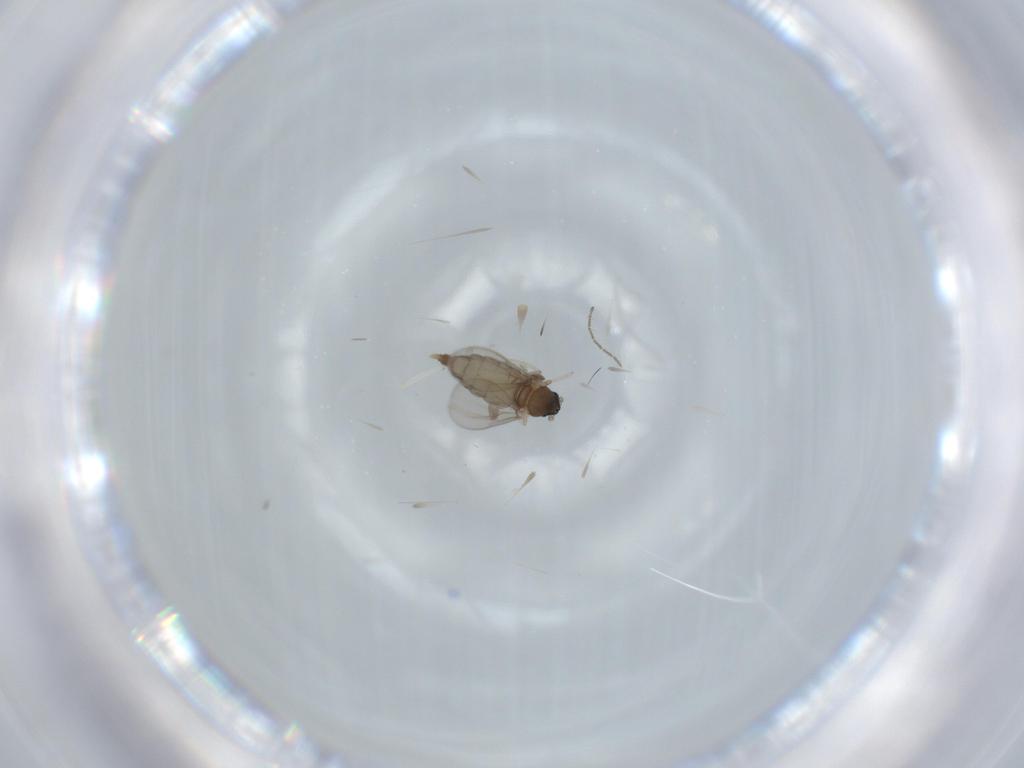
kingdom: Animalia
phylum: Arthropoda
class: Insecta
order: Diptera
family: Cecidomyiidae
